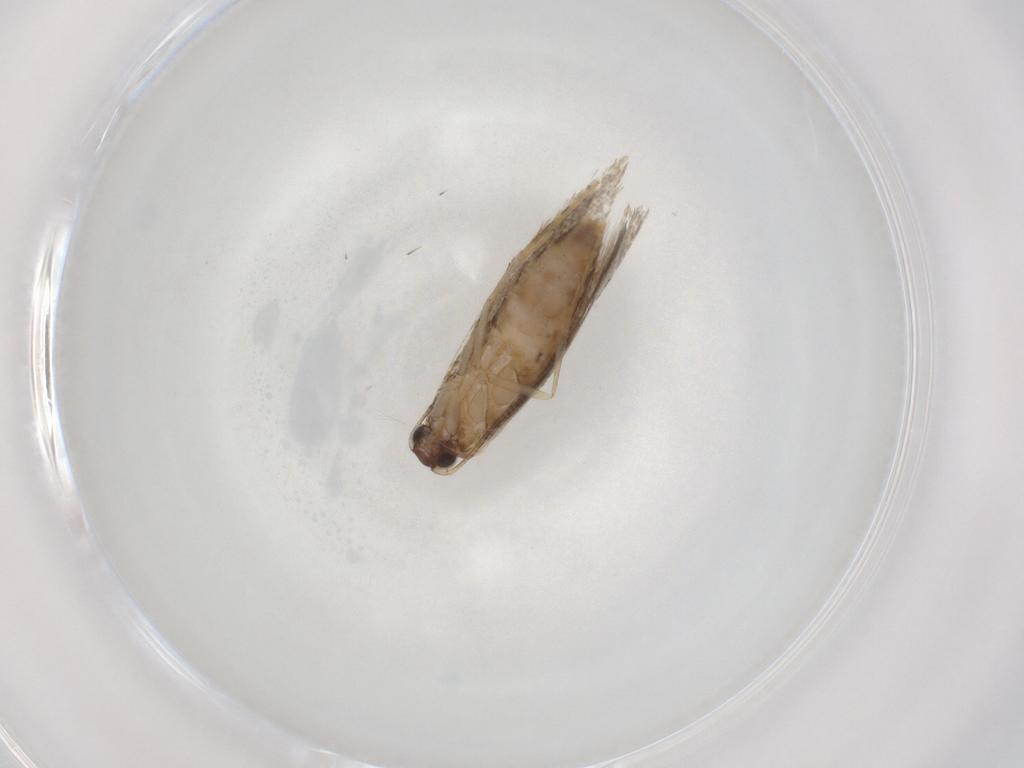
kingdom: Animalia
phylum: Arthropoda
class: Insecta
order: Lepidoptera
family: Tineidae
